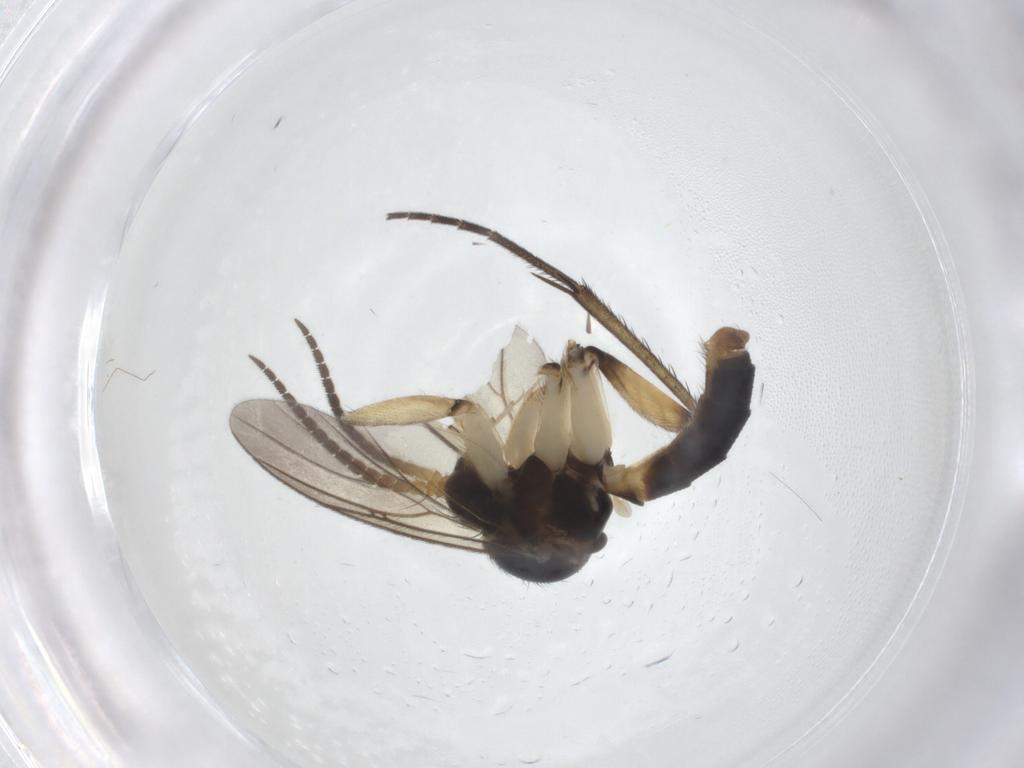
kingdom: Animalia
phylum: Arthropoda
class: Insecta
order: Diptera
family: Mycetophilidae
